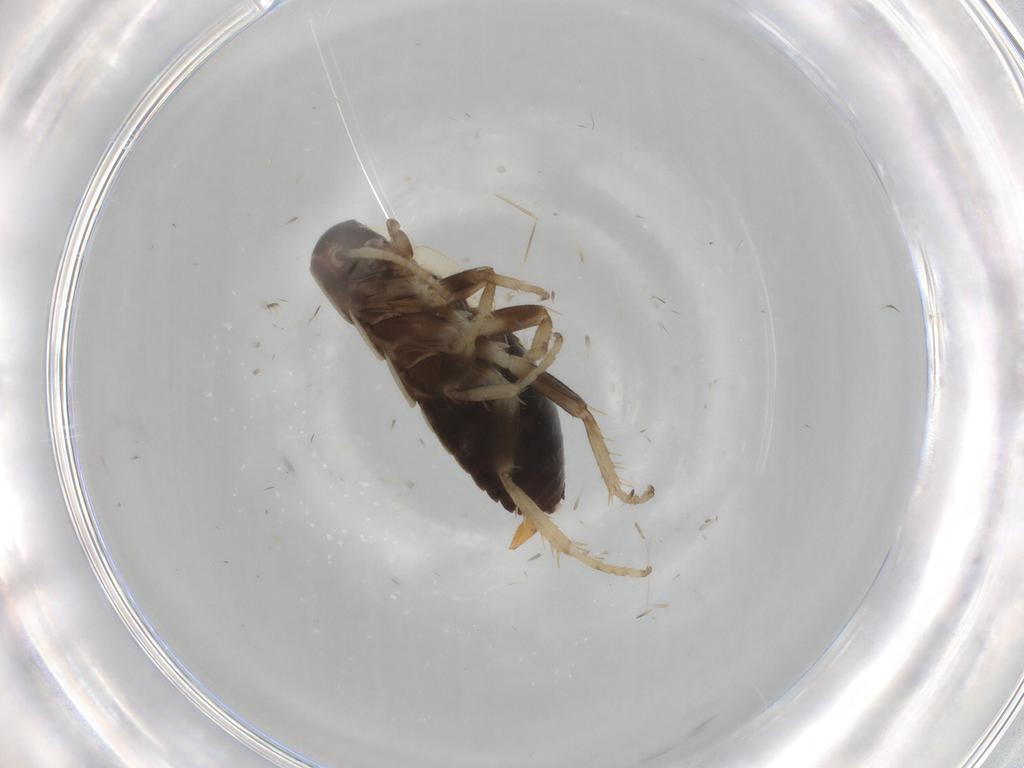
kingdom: Animalia
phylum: Arthropoda
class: Insecta
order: Blattodea
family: Ectobiidae
